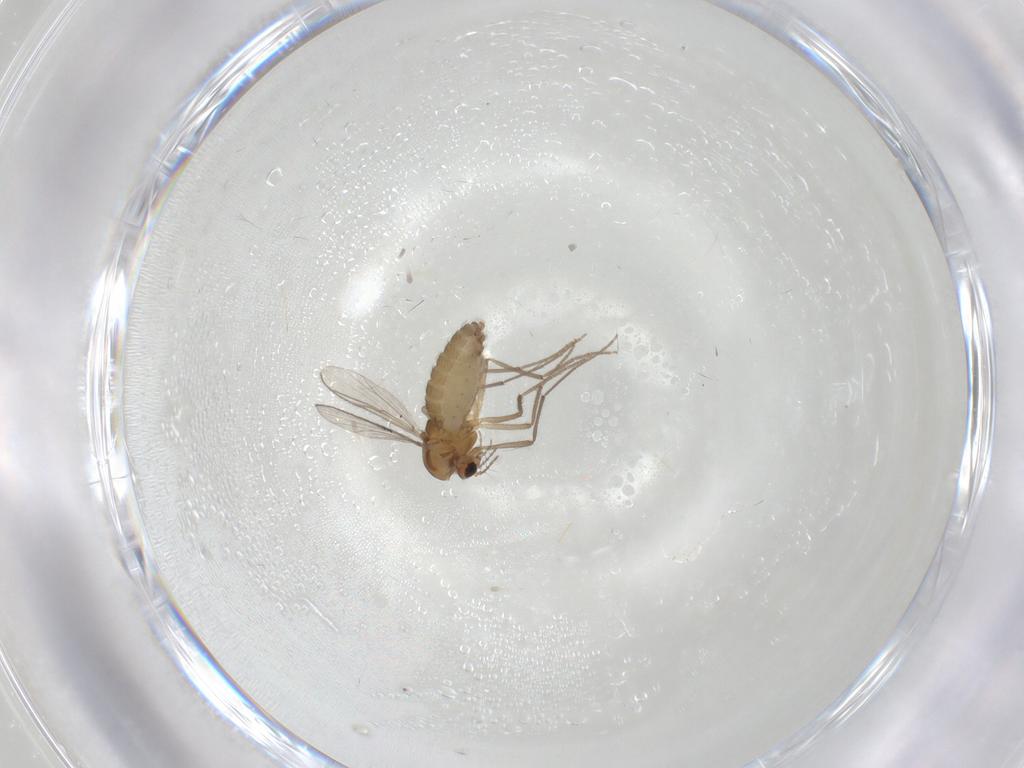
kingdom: Animalia
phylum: Arthropoda
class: Insecta
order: Diptera
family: Chironomidae
